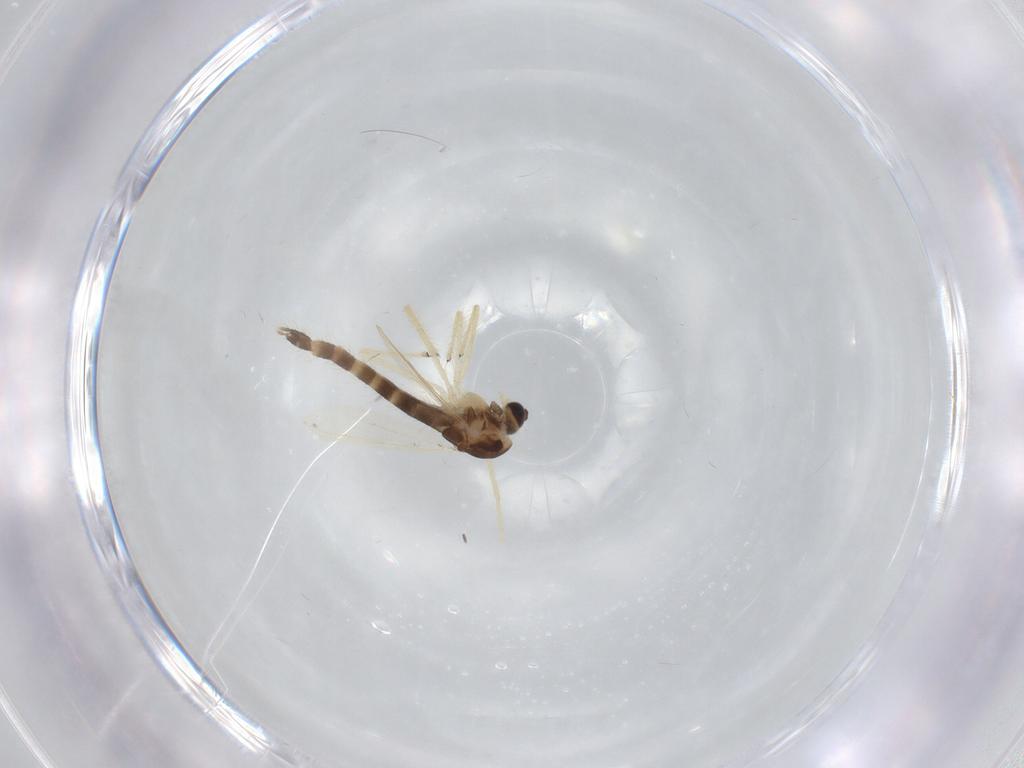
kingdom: Animalia
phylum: Arthropoda
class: Insecta
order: Diptera
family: Chironomidae
